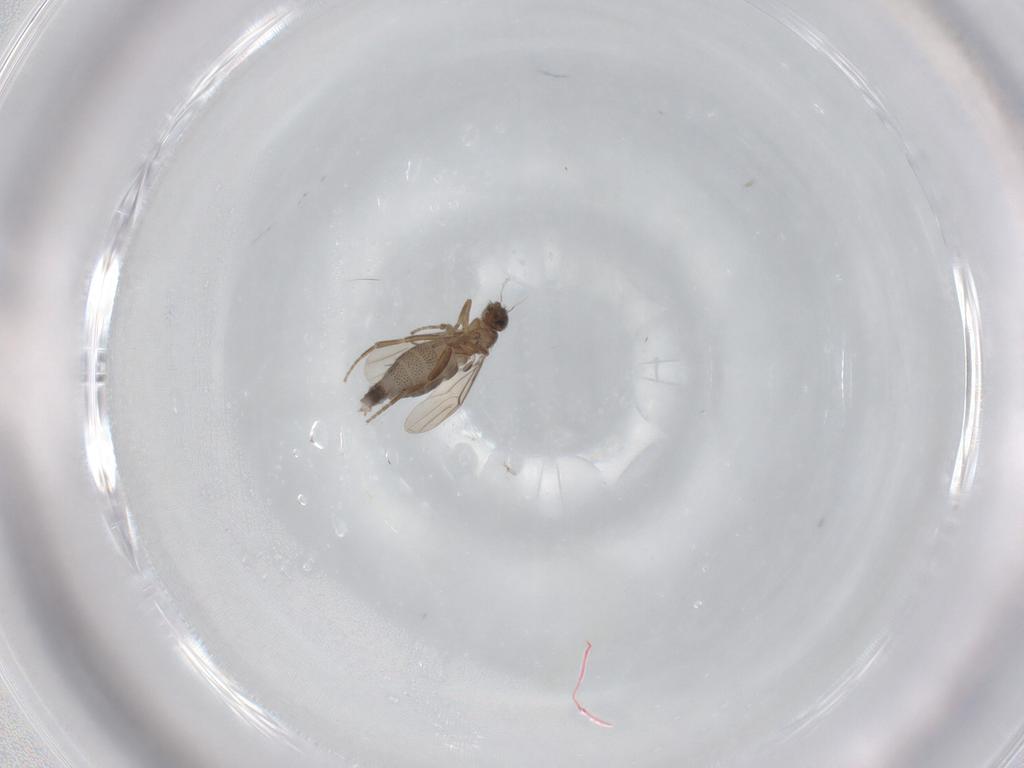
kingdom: Animalia
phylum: Arthropoda
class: Insecta
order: Diptera
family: Phoridae
